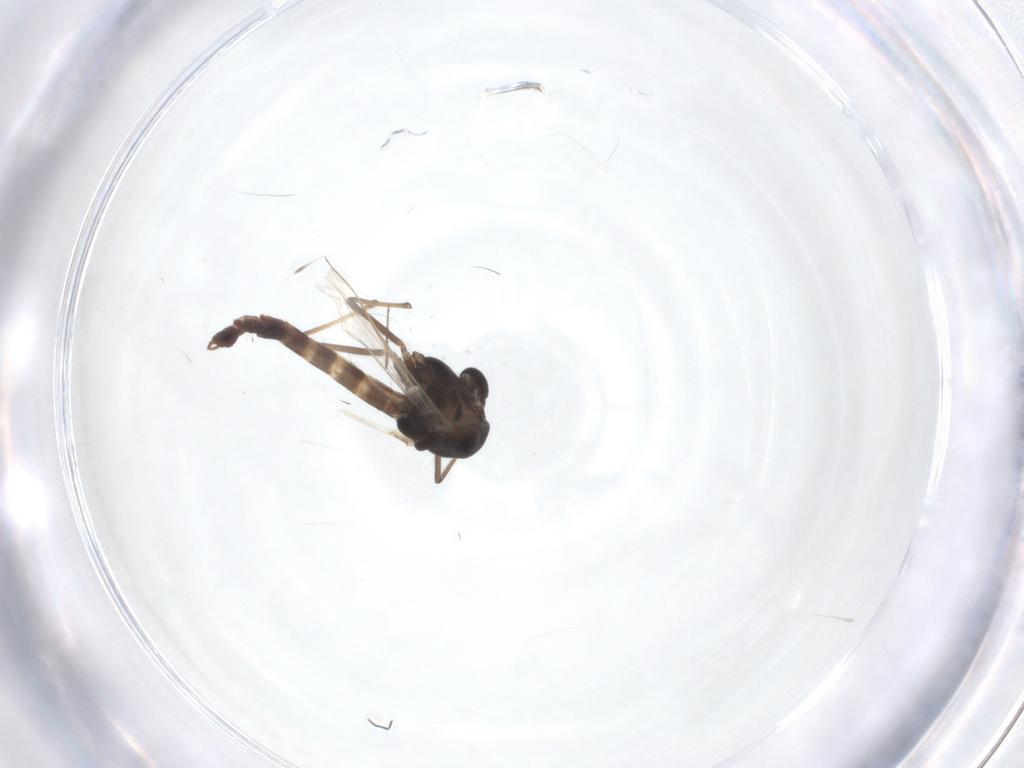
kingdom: Animalia
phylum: Arthropoda
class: Insecta
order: Diptera
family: Chironomidae
